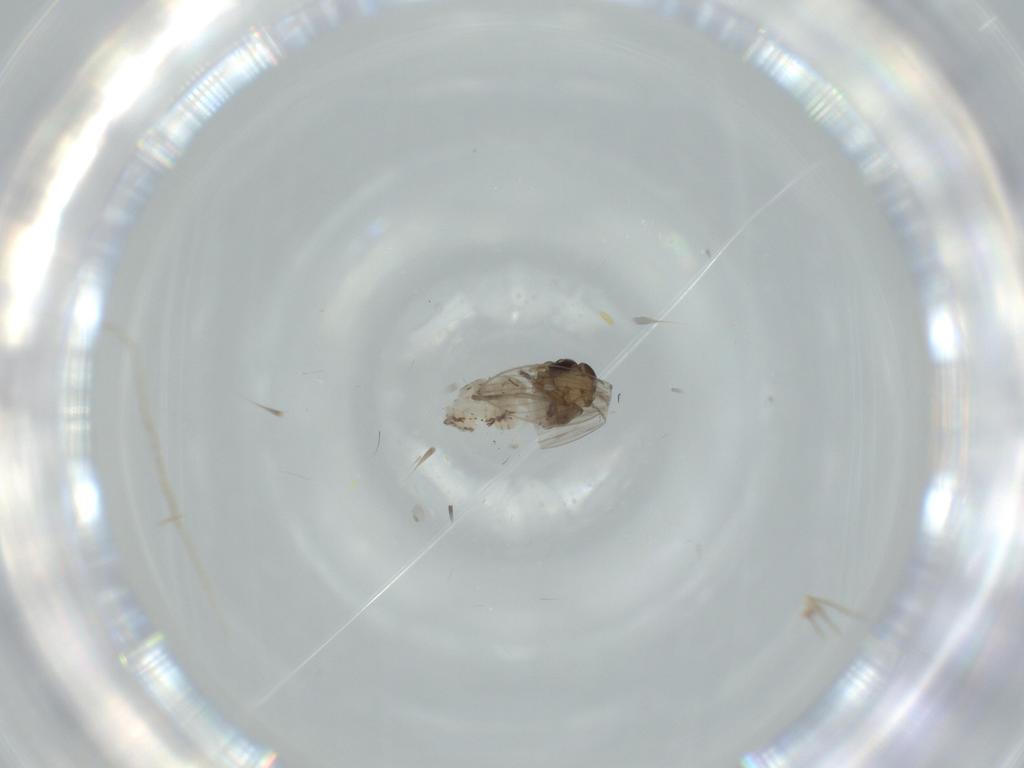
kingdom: Animalia
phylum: Arthropoda
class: Insecta
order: Diptera
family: Psychodidae
